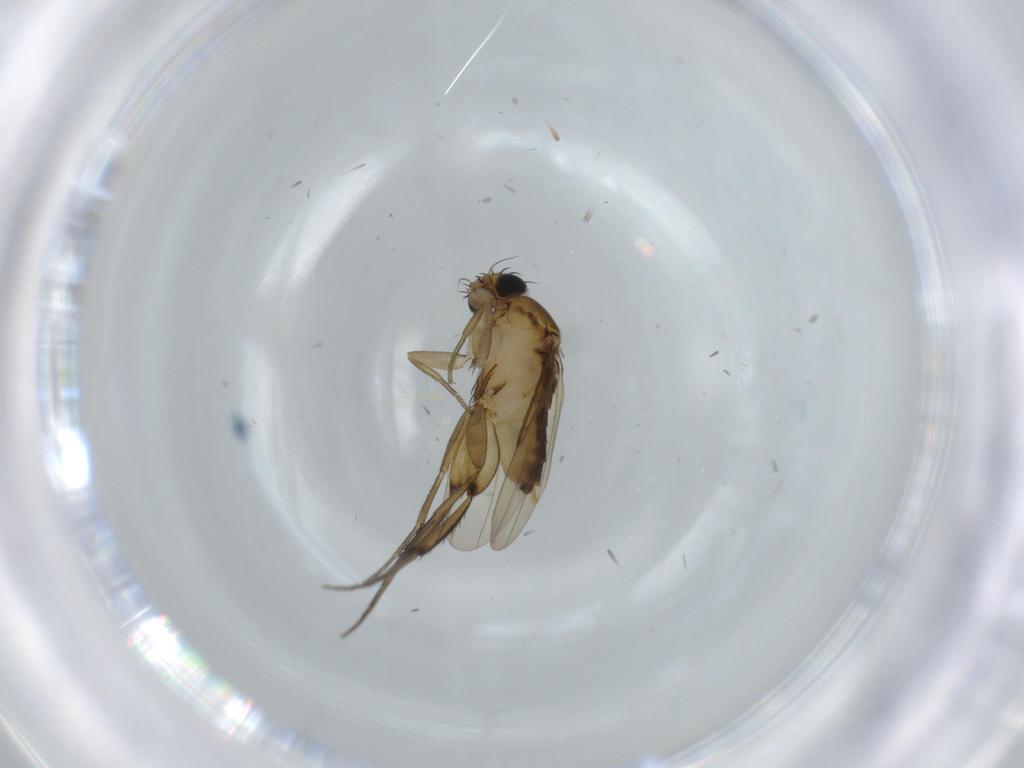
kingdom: Animalia
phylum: Arthropoda
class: Insecta
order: Diptera
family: Phoridae
